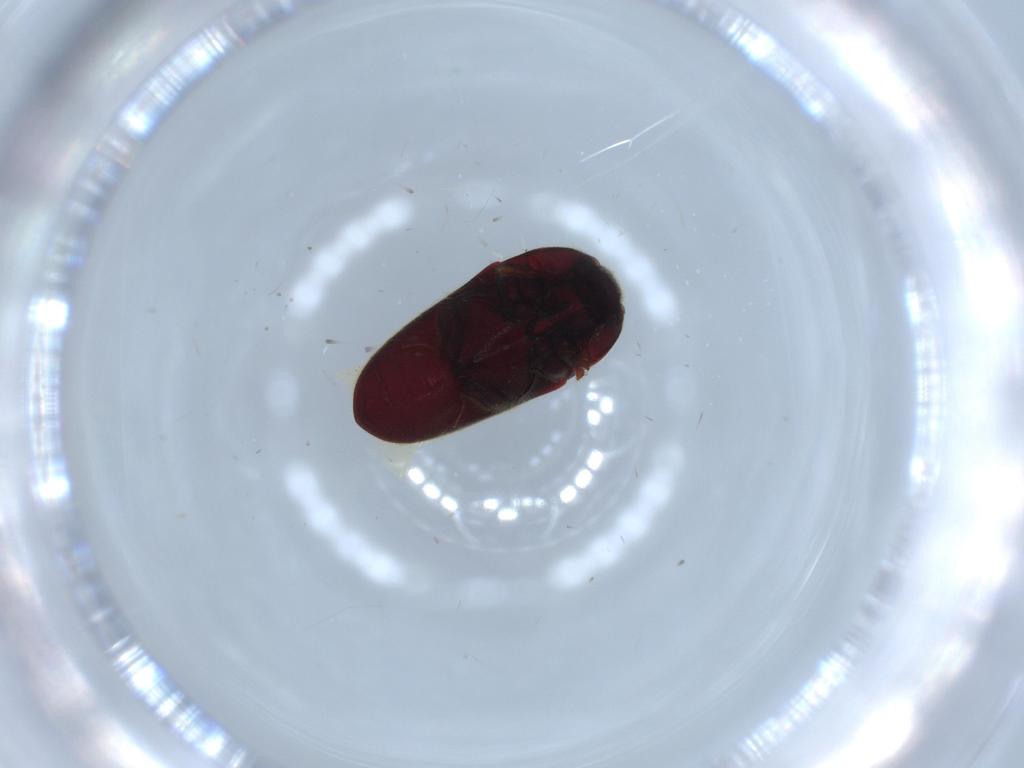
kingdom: Animalia
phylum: Arthropoda
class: Insecta
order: Coleoptera
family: Throscidae
